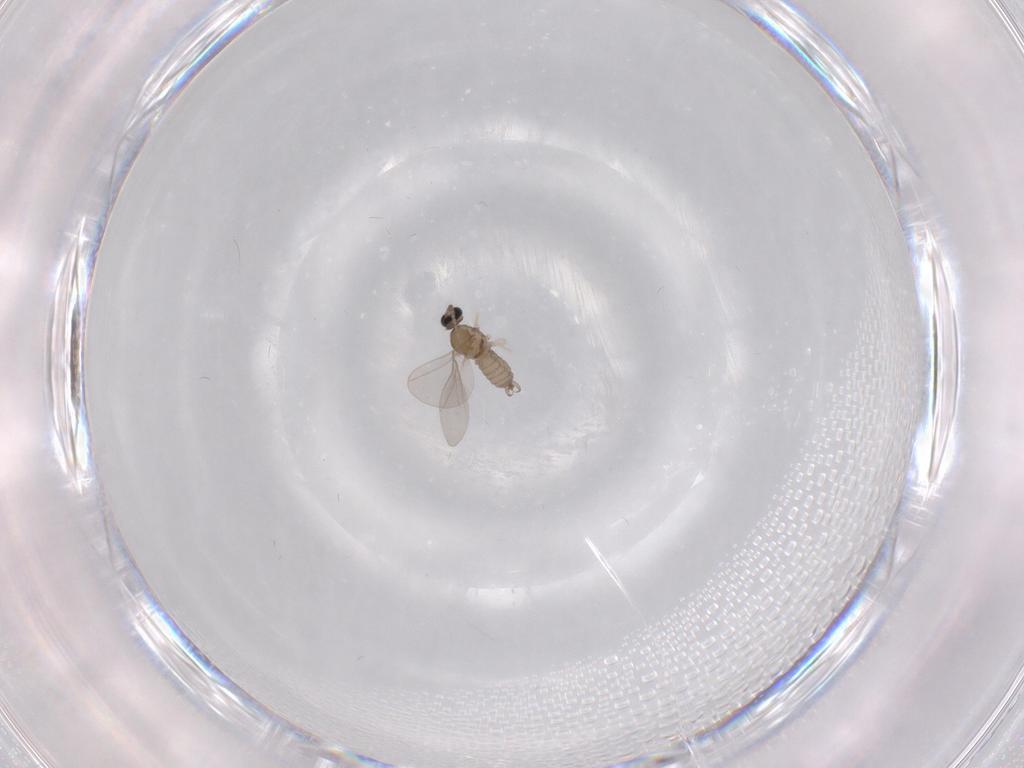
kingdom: Animalia
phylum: Arthropoda
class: Insecta
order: Diptera
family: Cecidomyiidae
